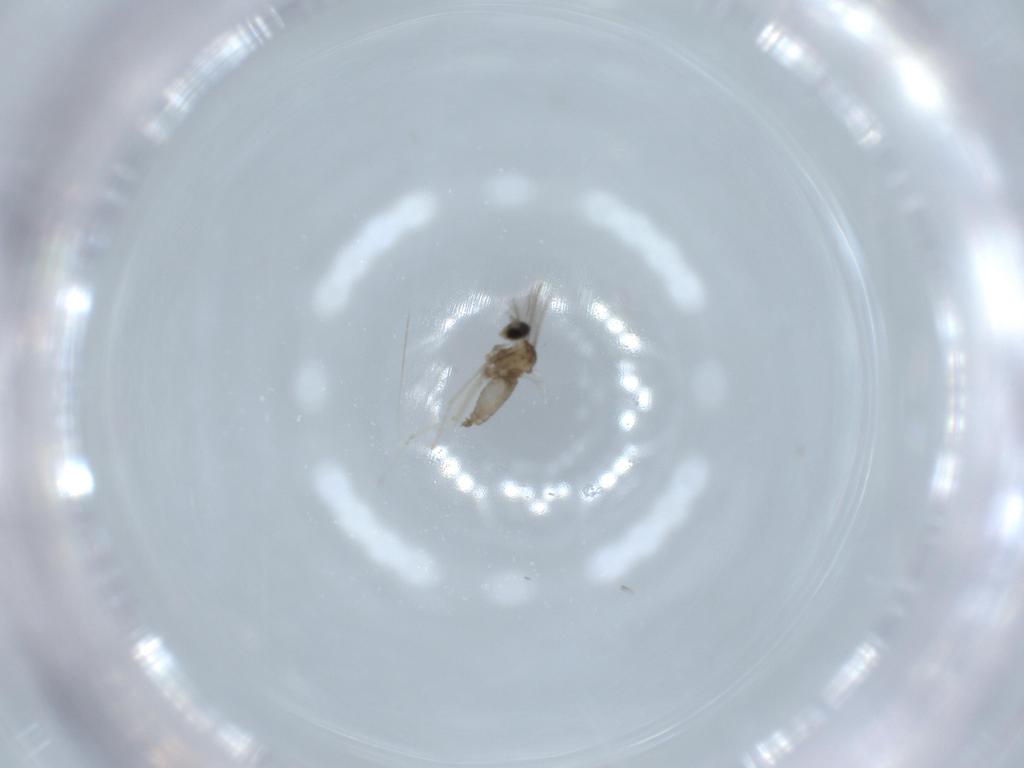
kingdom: Animalia
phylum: Arthropoda
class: Insecta
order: Diptera
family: Cecidomyiidae
